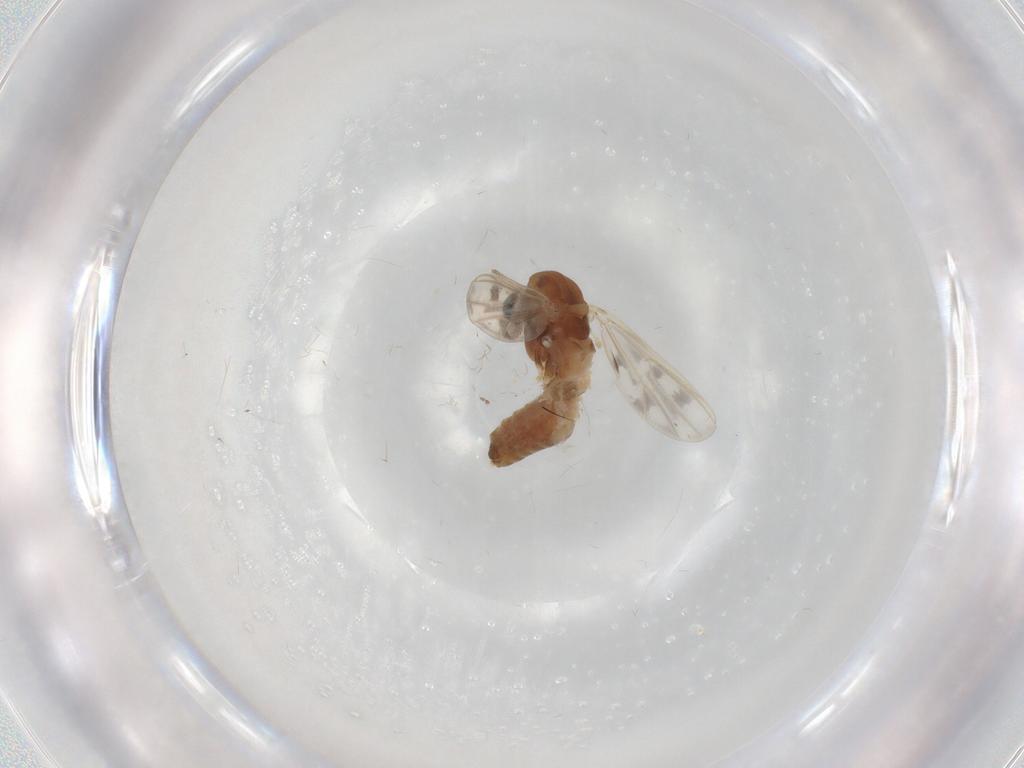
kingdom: Animalia
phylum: Arthropoda
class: Insecta
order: Diptera
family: Chironomidae
